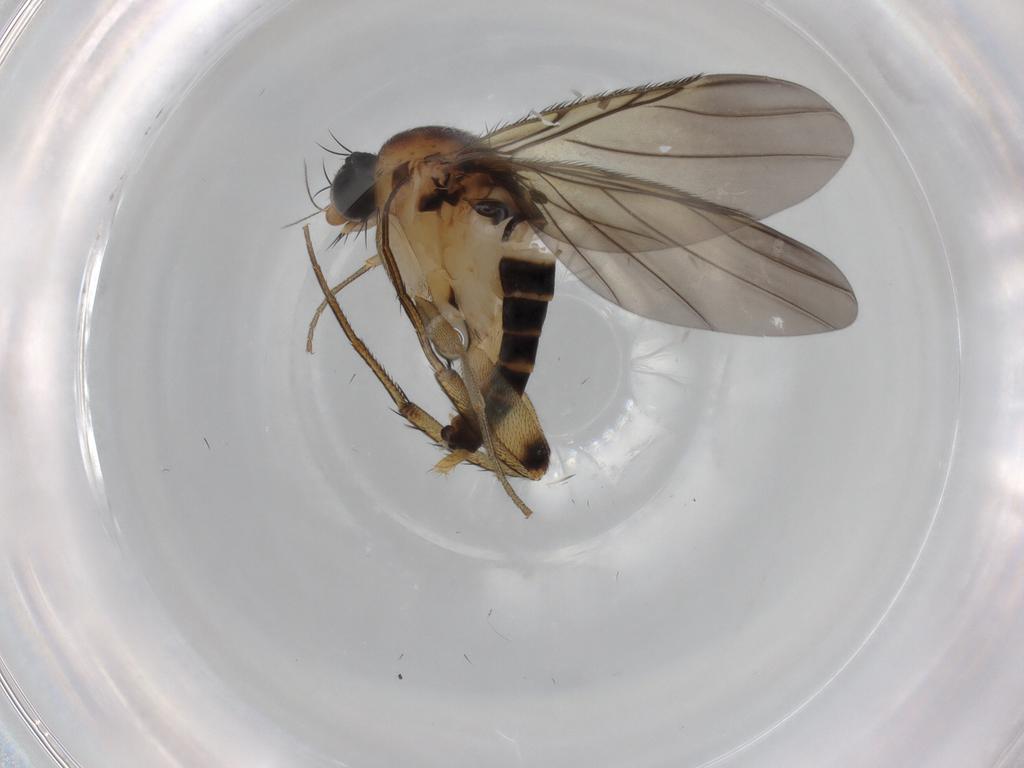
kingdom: Animalia
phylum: Arthropoda
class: Insecta
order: Diptera
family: Phoridae
